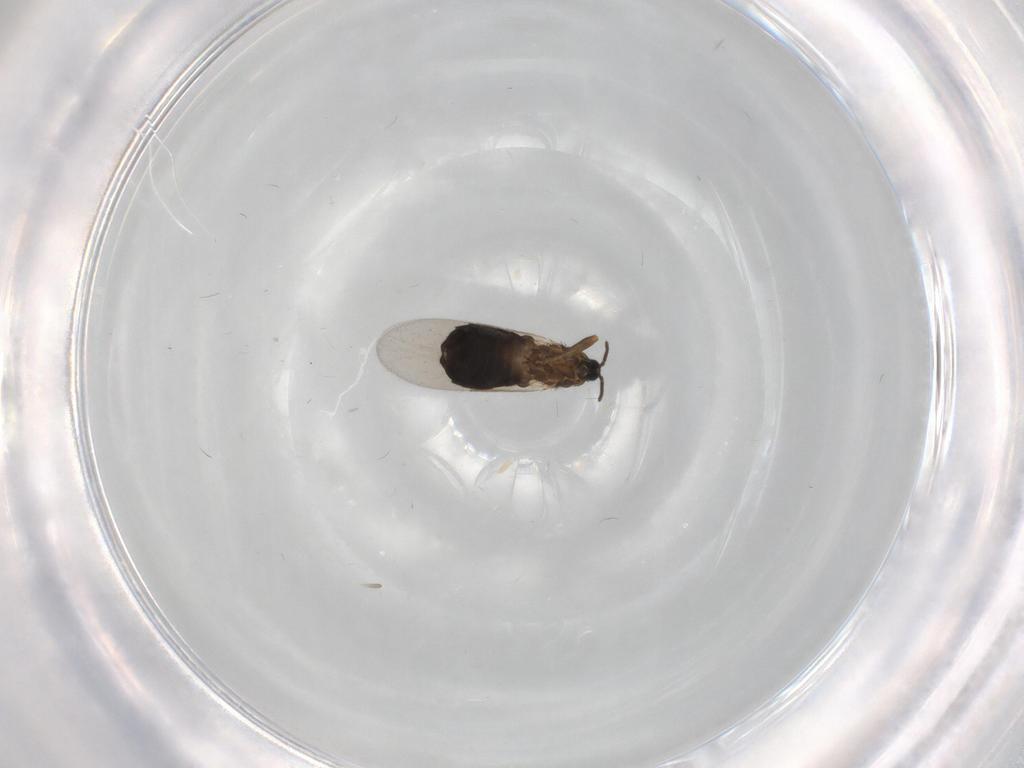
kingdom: Animalia
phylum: Arthropoda
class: Insecta
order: Diptera
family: Scatopsidae
